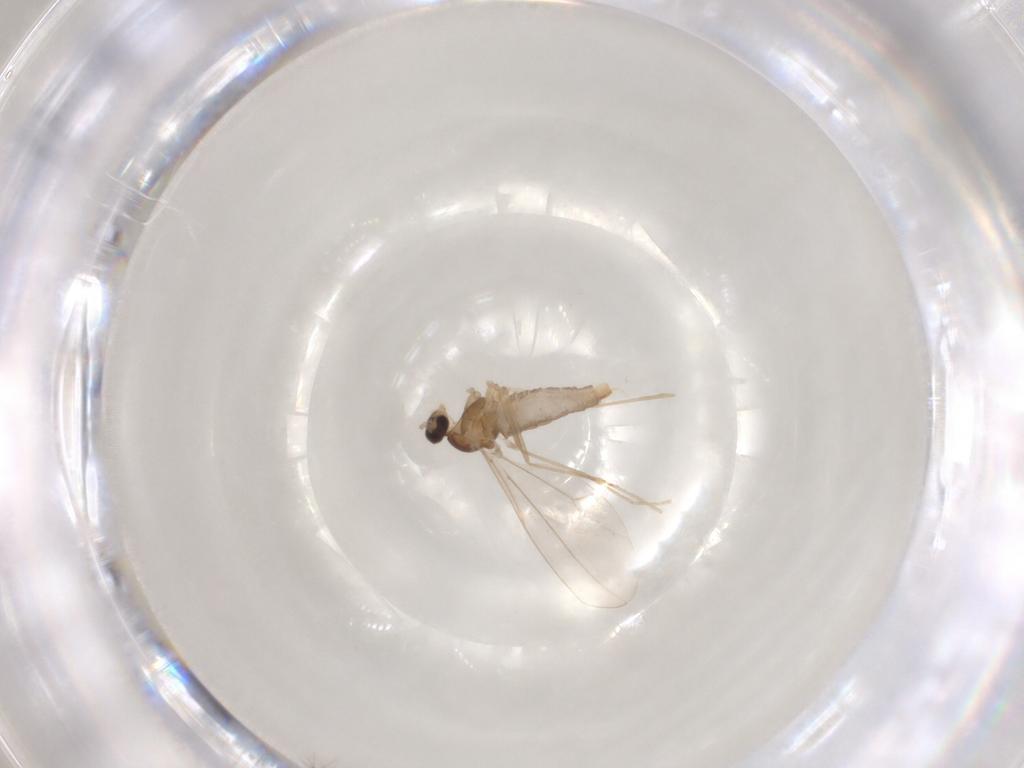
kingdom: Animalia
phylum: Arthropoda
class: Insecta
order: Diptera
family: Cecidomyiidae
